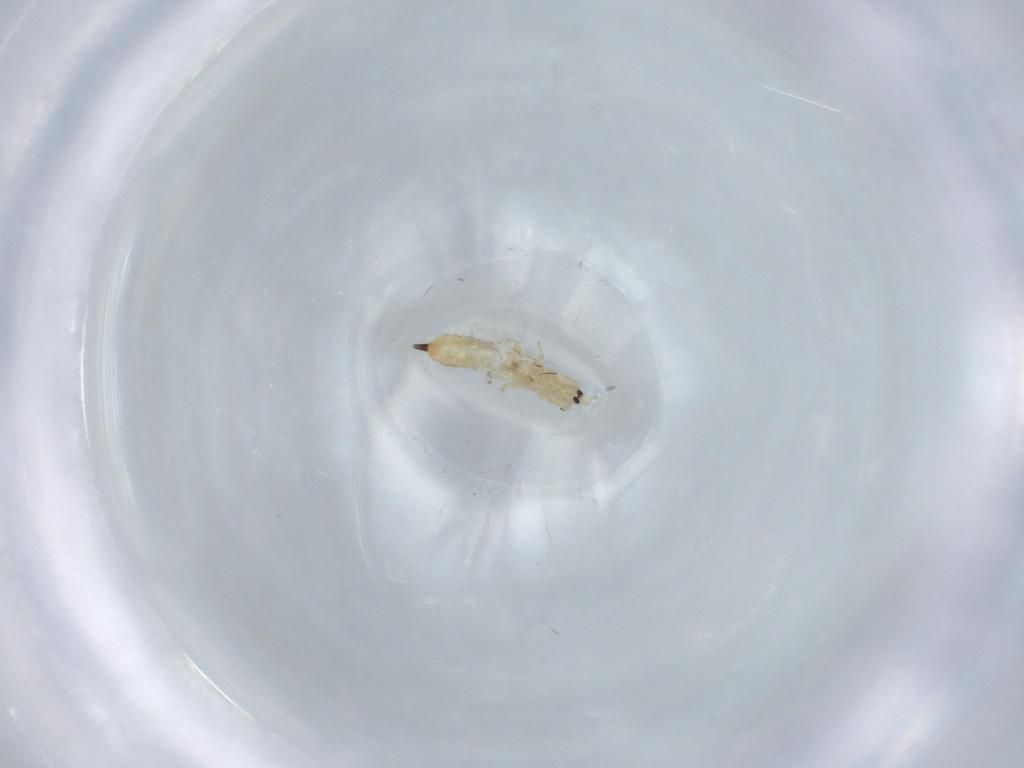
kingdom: Animalia
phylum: Arthropoda
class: Insecta
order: Thysanoptera
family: Phlaeothripidae
